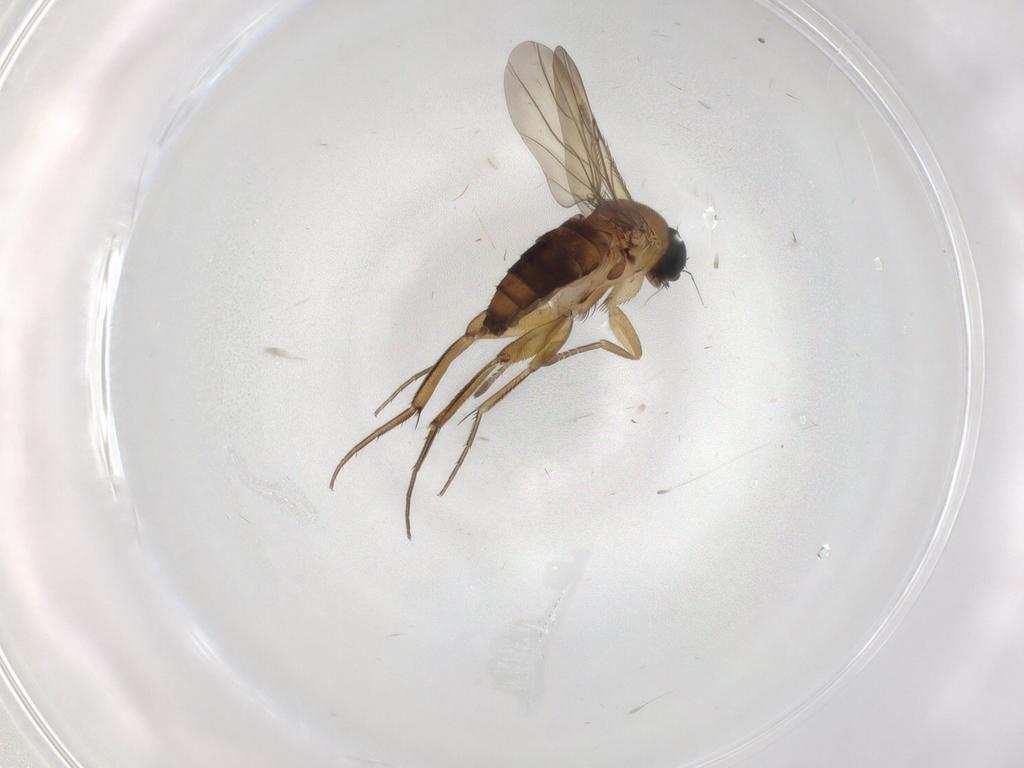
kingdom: Animalia
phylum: Arthropoda
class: Insecta
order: Diptera
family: Phoridae
